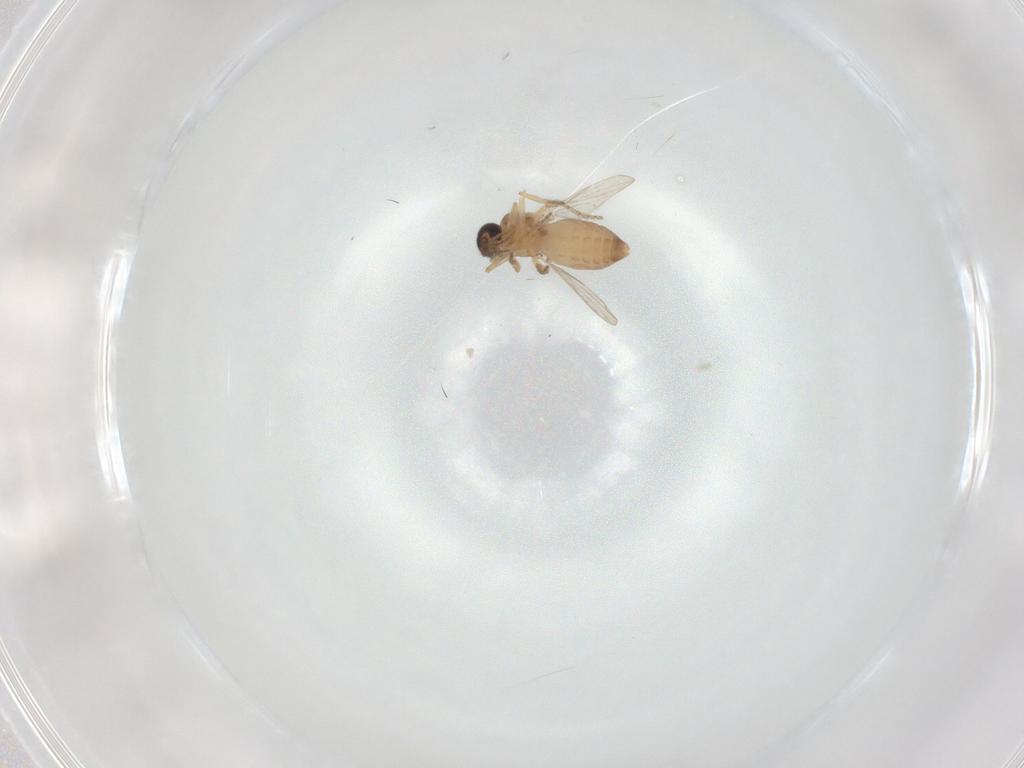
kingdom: Animalia
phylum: Arthropoda
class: Insecta
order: Diptera
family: Ceratopogonidae
